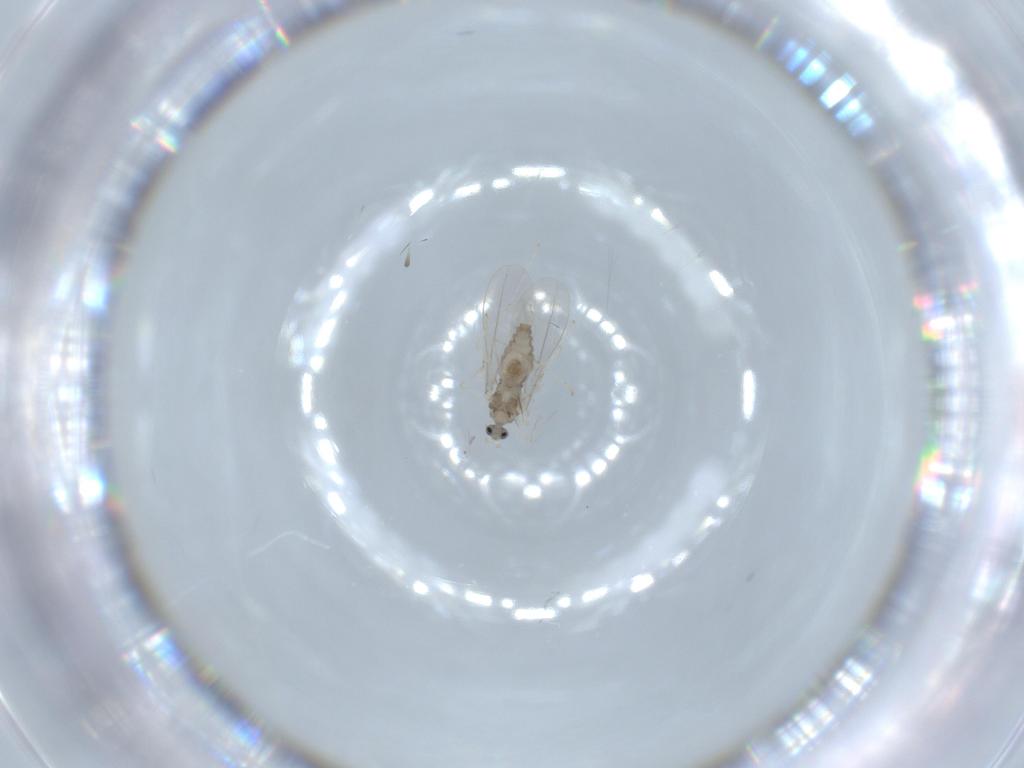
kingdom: Animalia
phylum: Arthropoda
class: Insecta
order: Diptera
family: Cecidomyiidae
